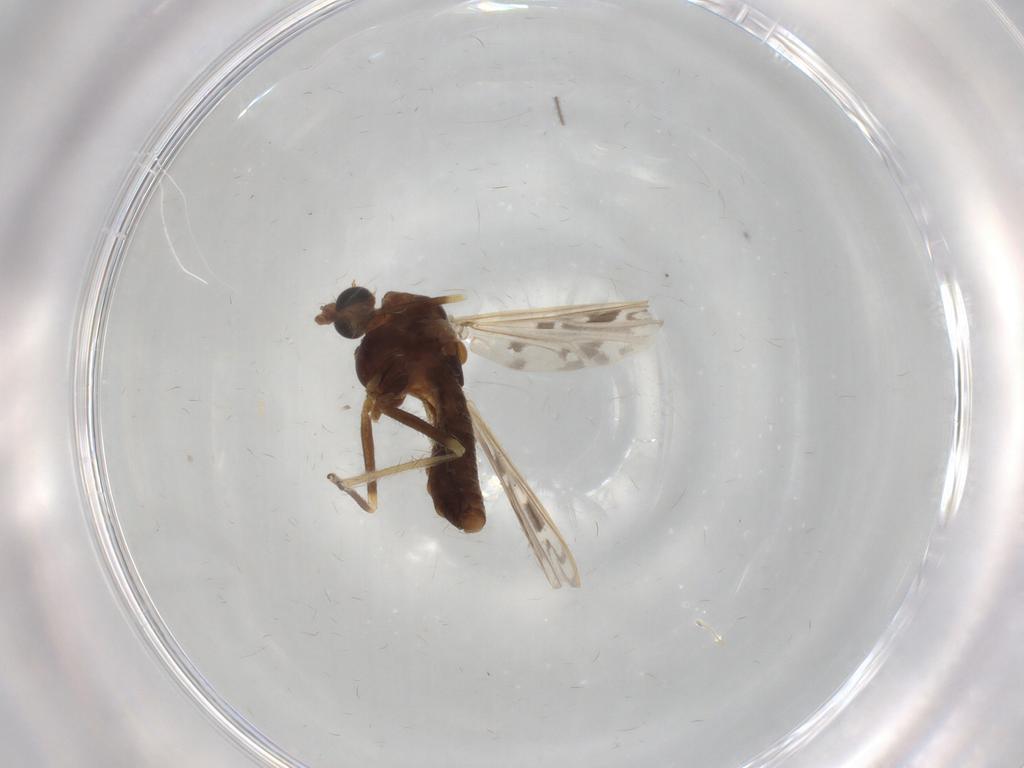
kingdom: Animalia
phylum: Arthropoda
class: Insecta
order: Diptera
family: Chironomidae
